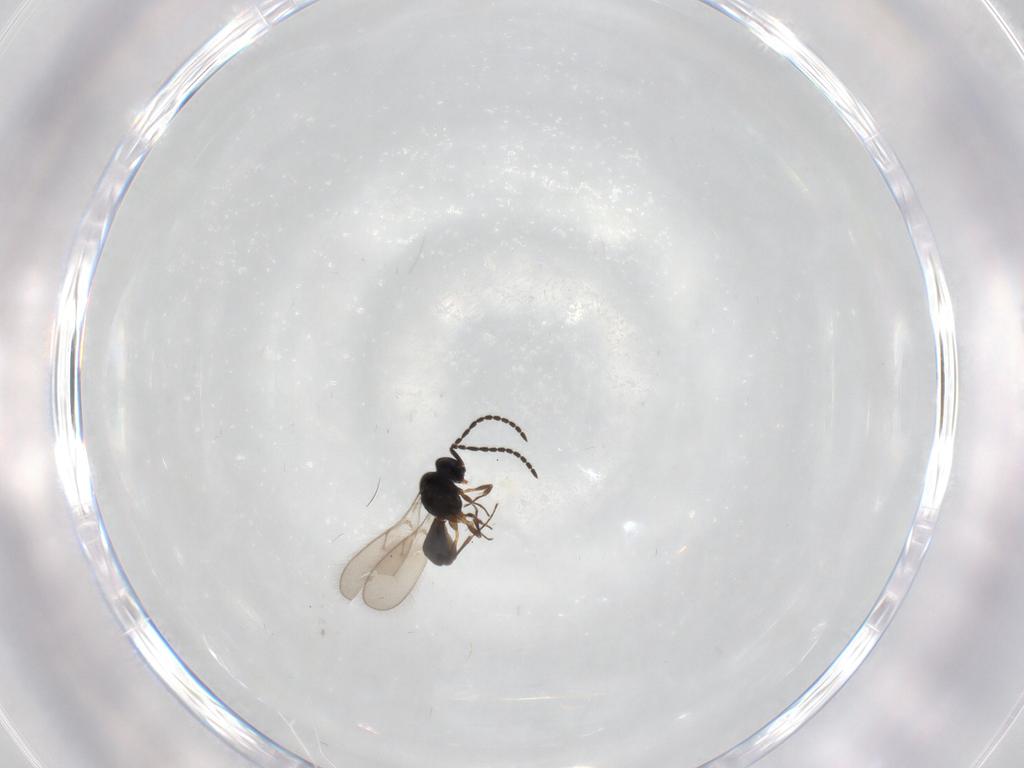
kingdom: Animalia
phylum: Arthropoda
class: Insecta
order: Hymenoptera
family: Scelionidae
